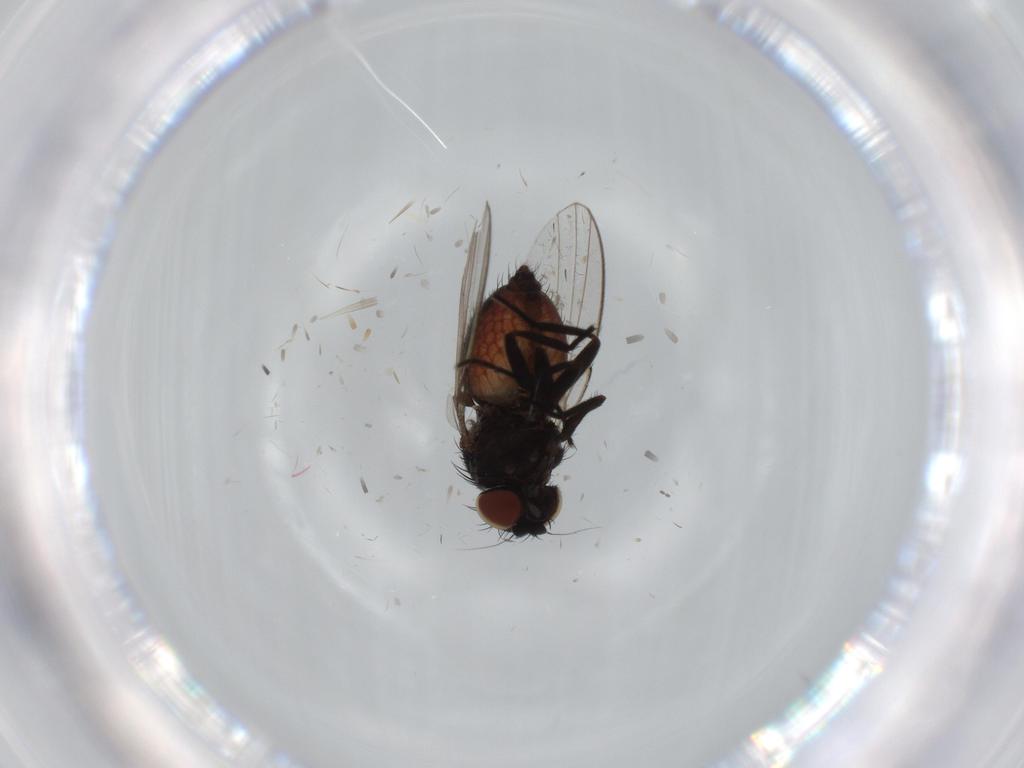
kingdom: Animalia
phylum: Arthropoda
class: Insecta
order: Diptera
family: Milichiidae
